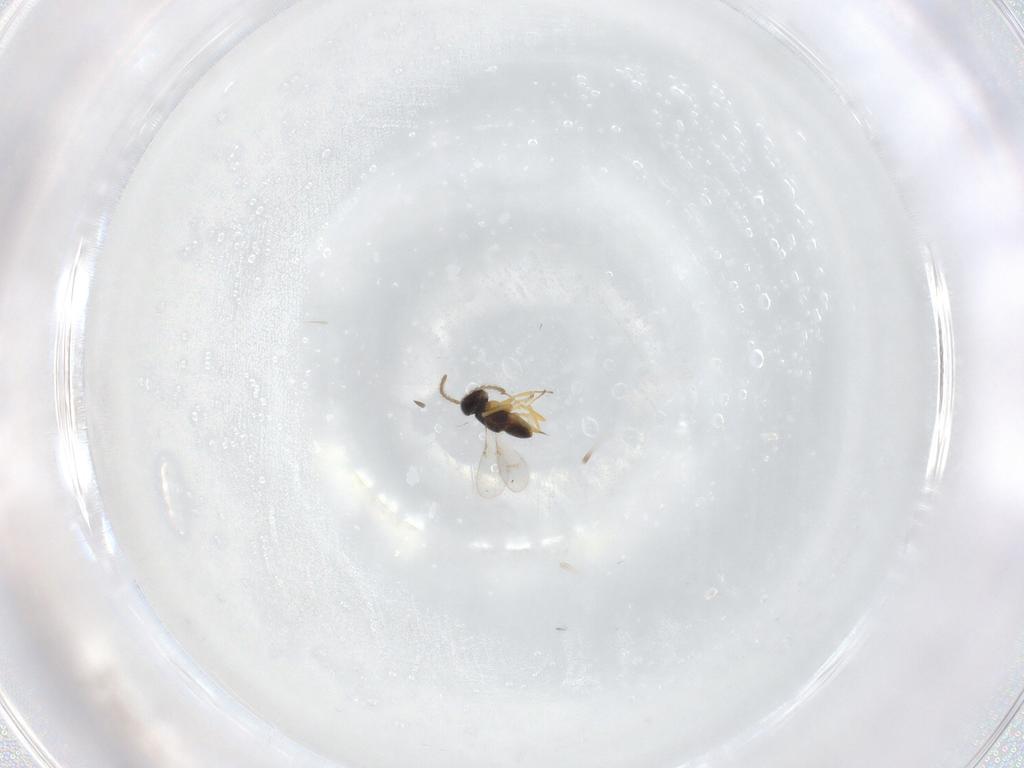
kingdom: Animalia
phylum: Arthropoda
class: Insecta
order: Hymenoptera
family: Encyrtidae
